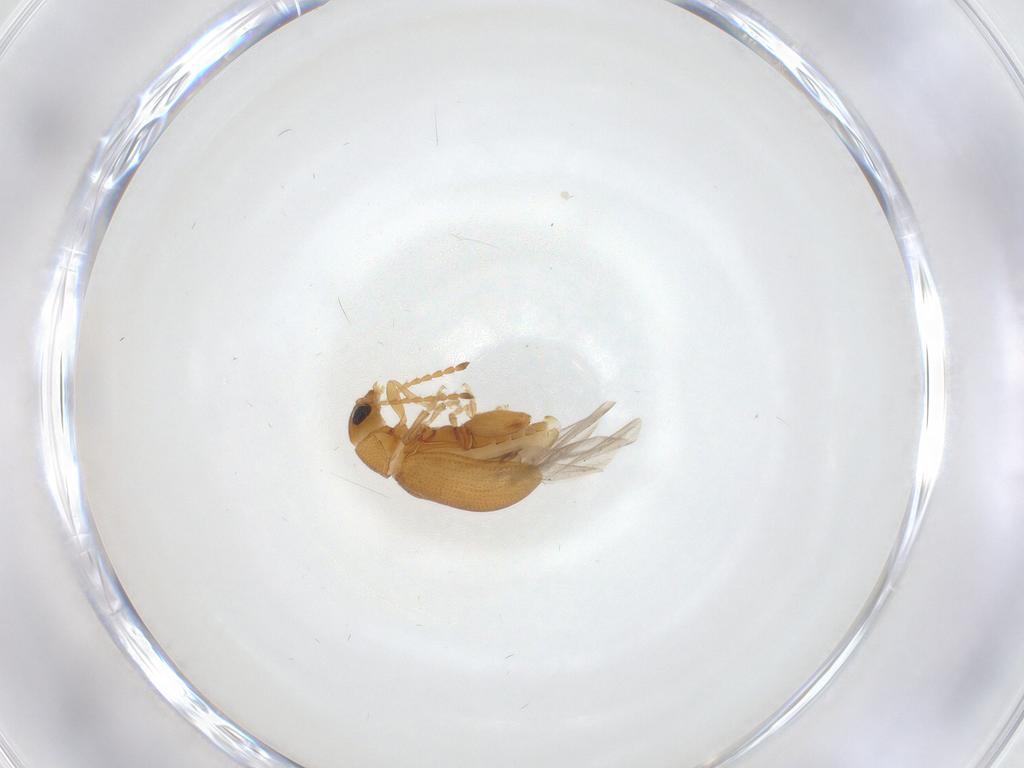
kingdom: Animalia
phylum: Arthropoda
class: Insecta
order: Coleoptera
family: Chrysomelidae
